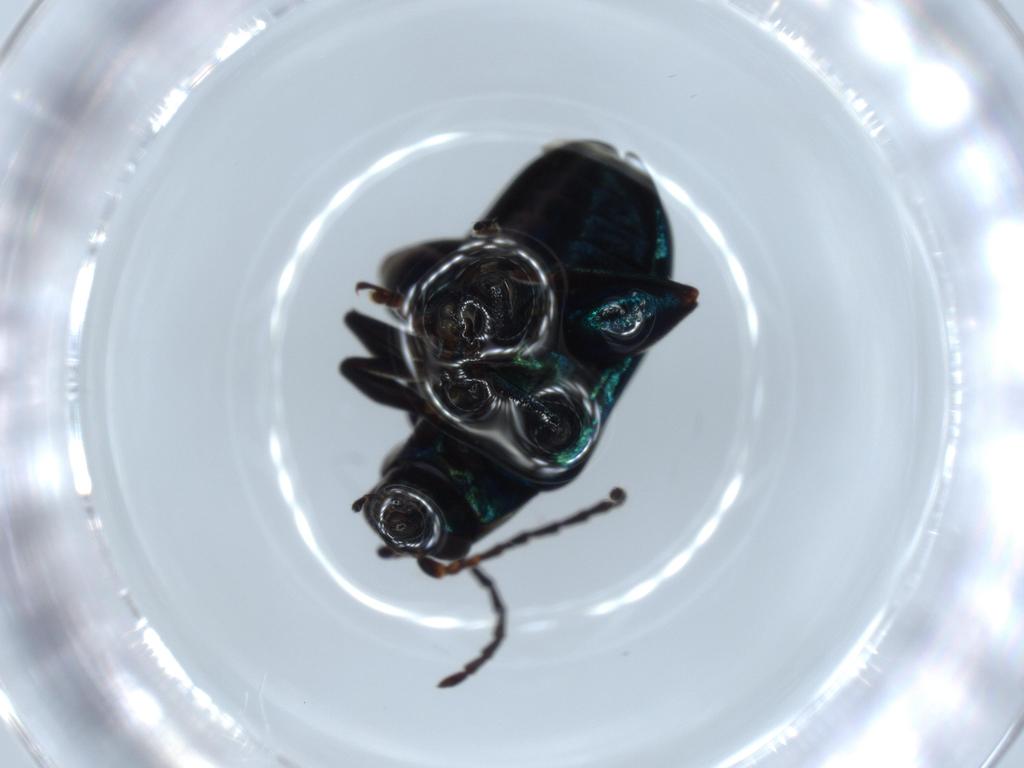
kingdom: Animalia
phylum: Arthropoda
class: Insecta
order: Coleoptera
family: Chrysomelidae
